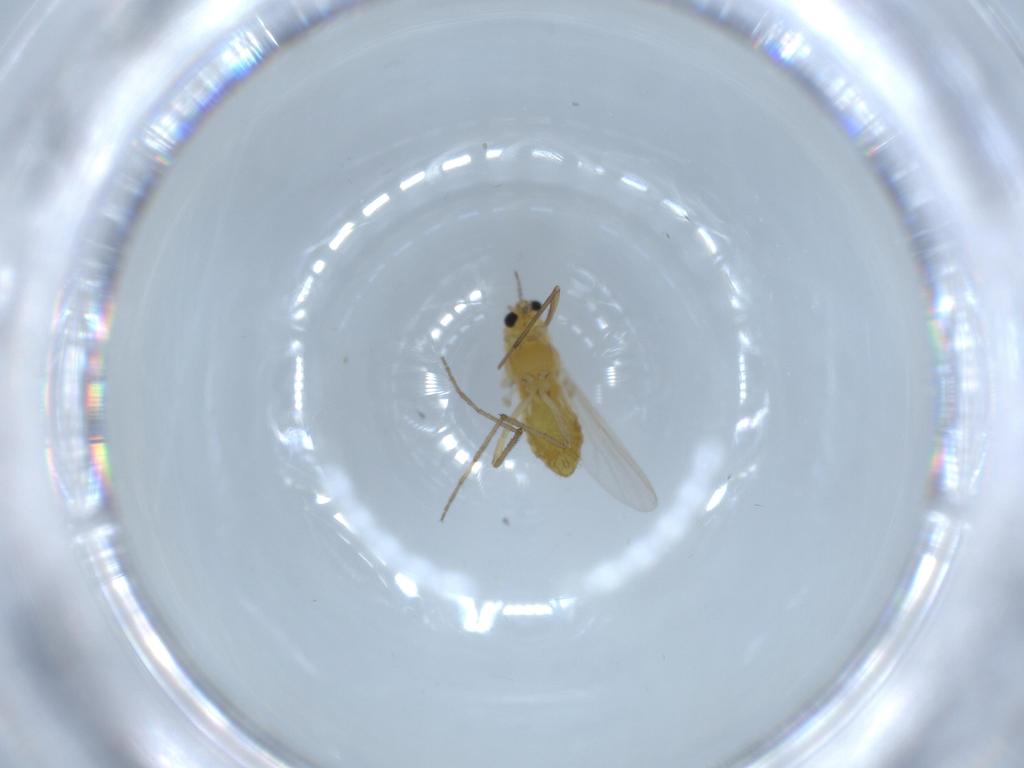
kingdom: Animalia
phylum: Arthropoda
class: Insecta
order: Diptera
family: Chironomidae
